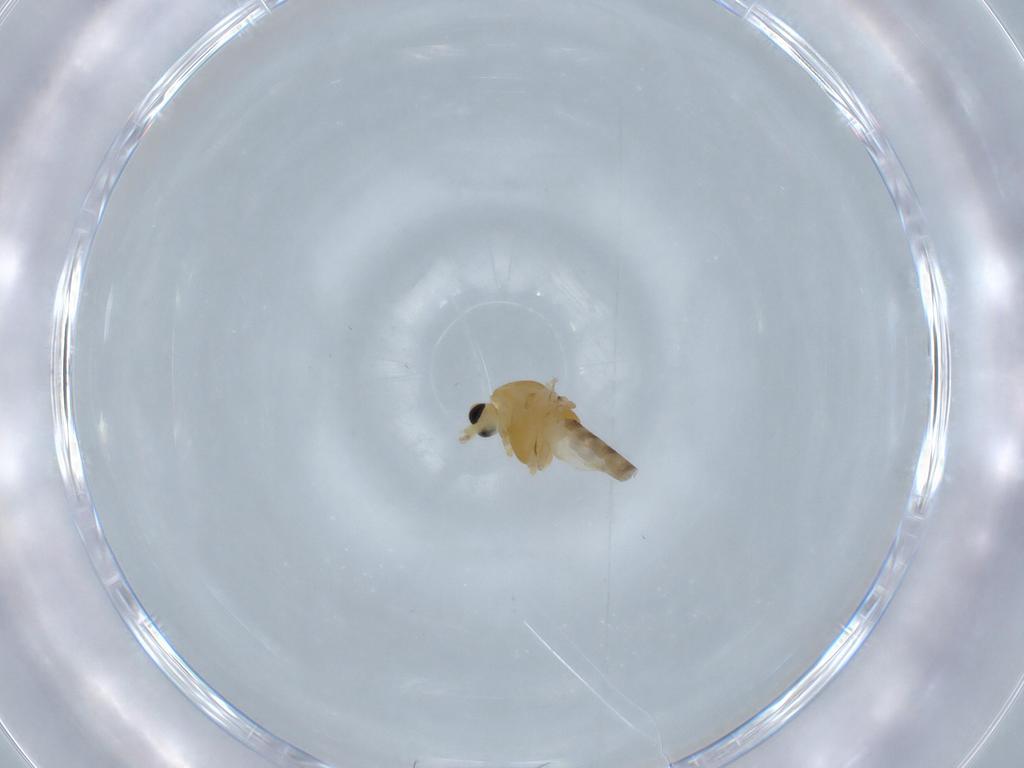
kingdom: Animalia
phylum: Arthropoda
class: Insecta
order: Diptera
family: Chironomidae
